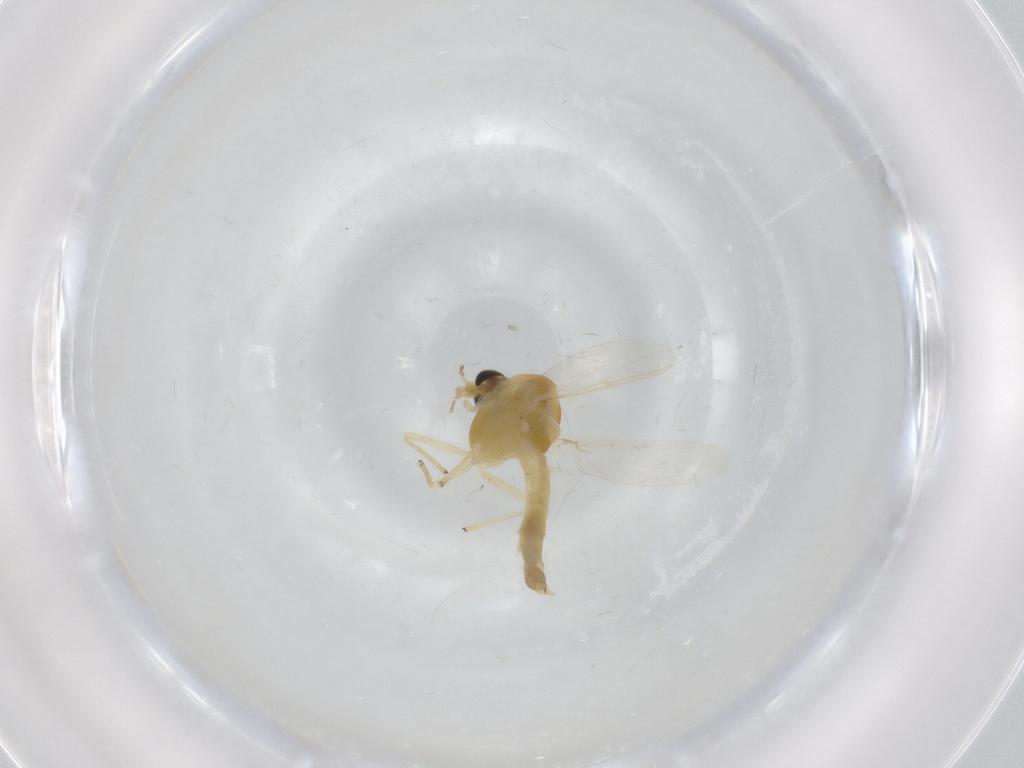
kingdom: Animalia
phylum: Arthropoda
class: Insecta
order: Diptera
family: Chironomidae
